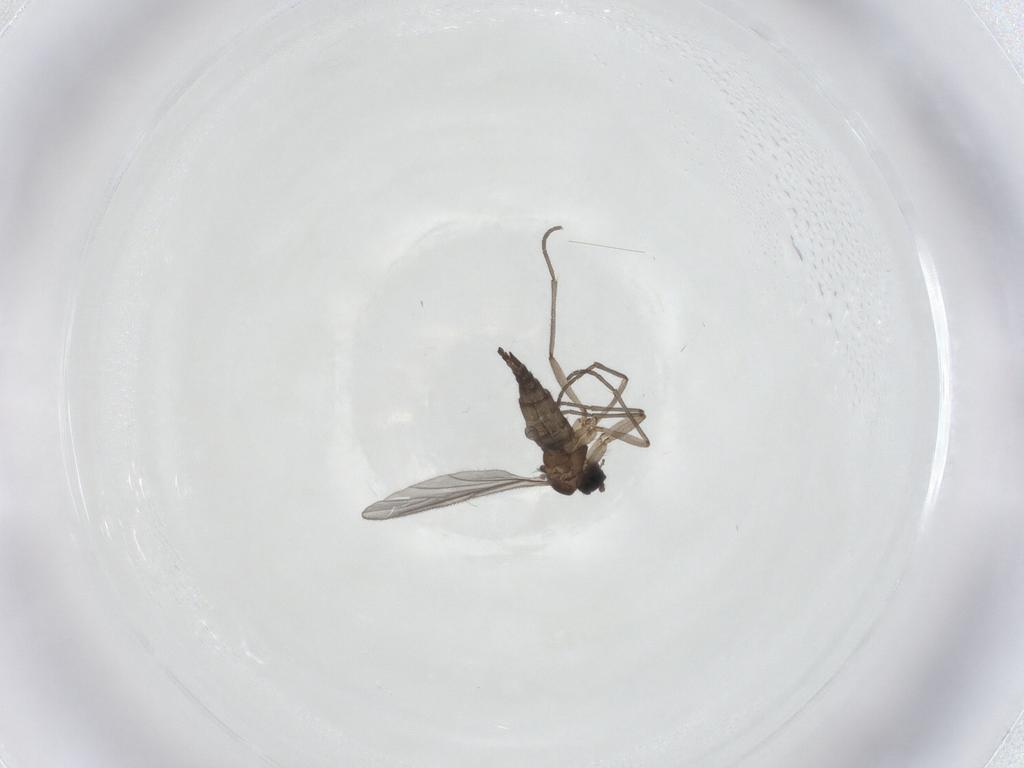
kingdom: Animalia
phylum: Arthropoda
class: Insecta
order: Diptera
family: Sciaridae
